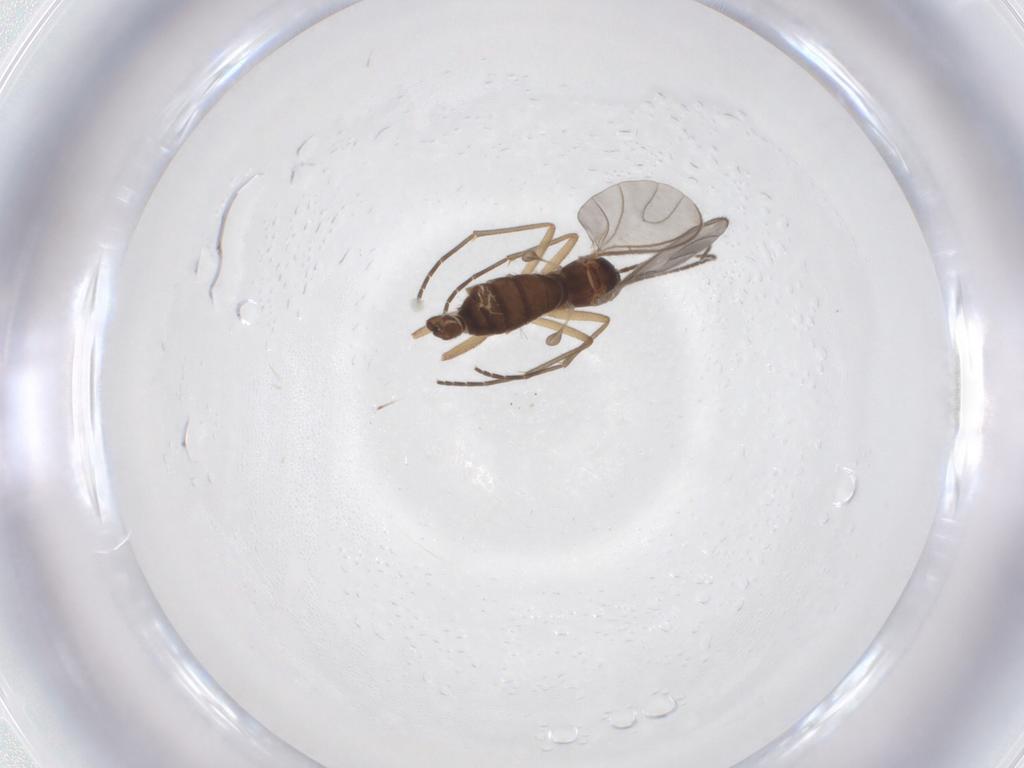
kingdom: Animalia
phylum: Arthropoda
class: Insecta
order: Diptera
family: Sciaridae
